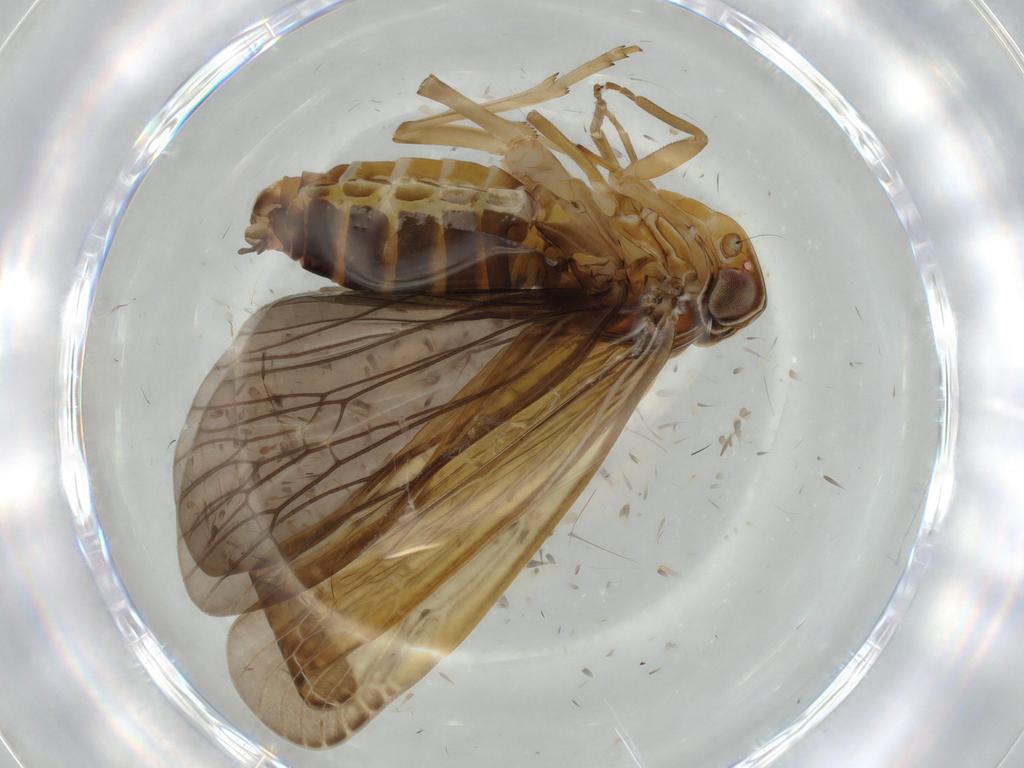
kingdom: Animalia
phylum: Arthropoda
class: Insecta
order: Hemiptera
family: Achilidae
